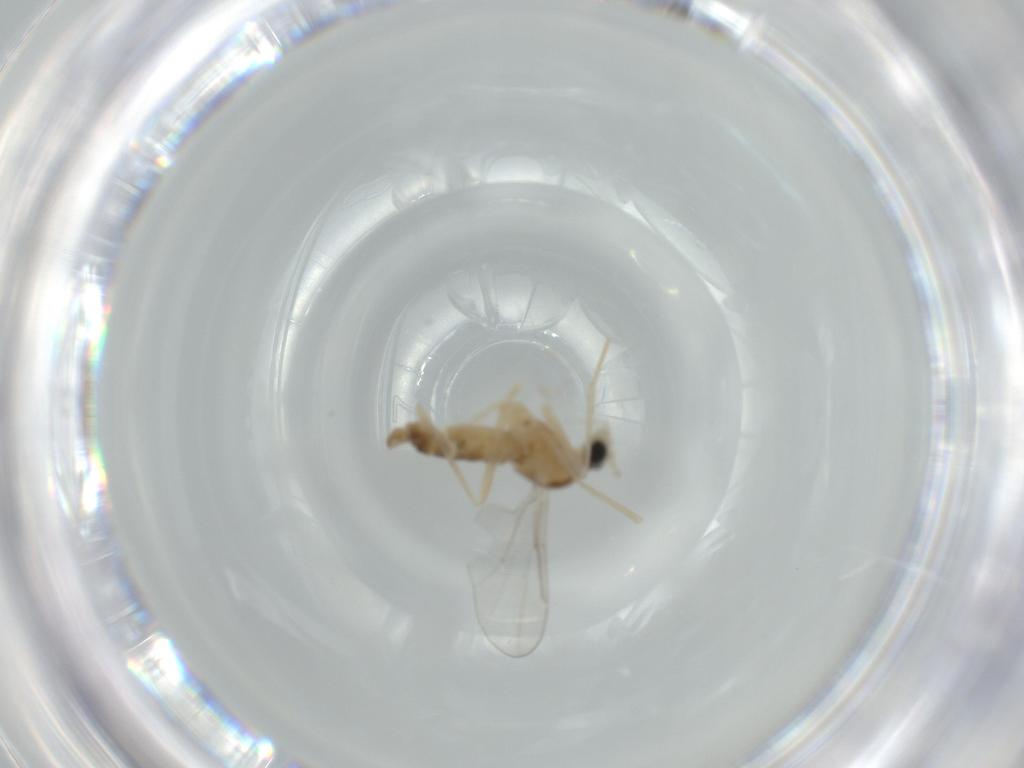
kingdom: Animalia
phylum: Arthropoda
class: Insecta
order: Diptera
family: Cecidomyiidae
